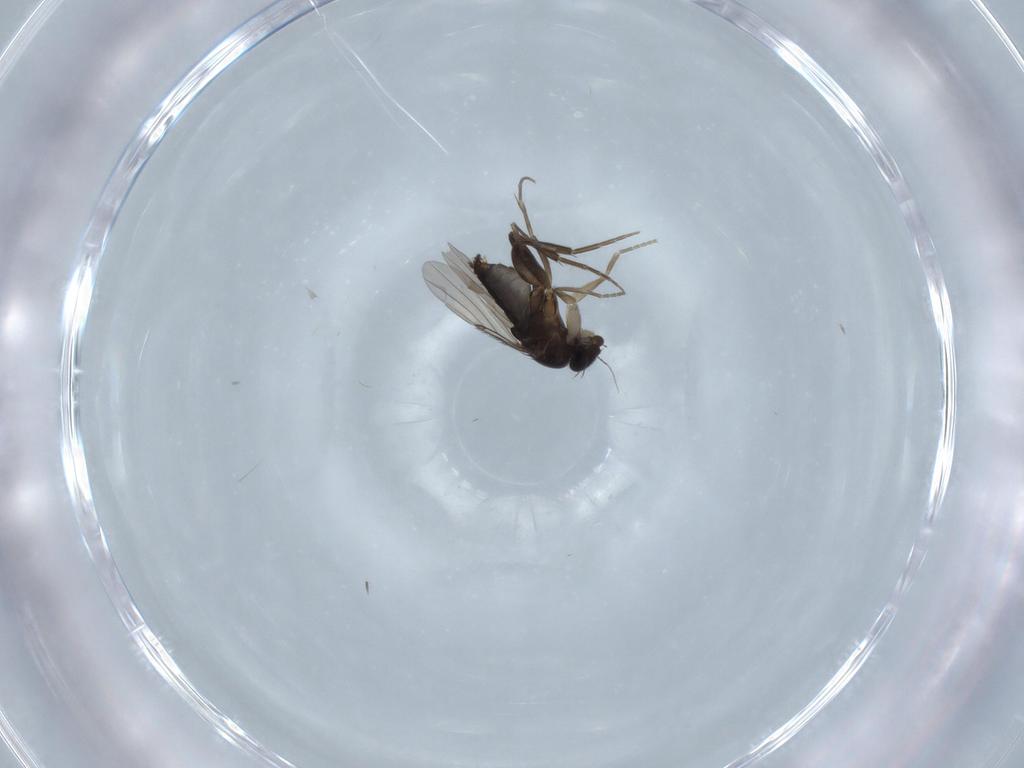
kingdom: Animalia
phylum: Arthropoda
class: Insecta
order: Diptera
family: Phoridae
